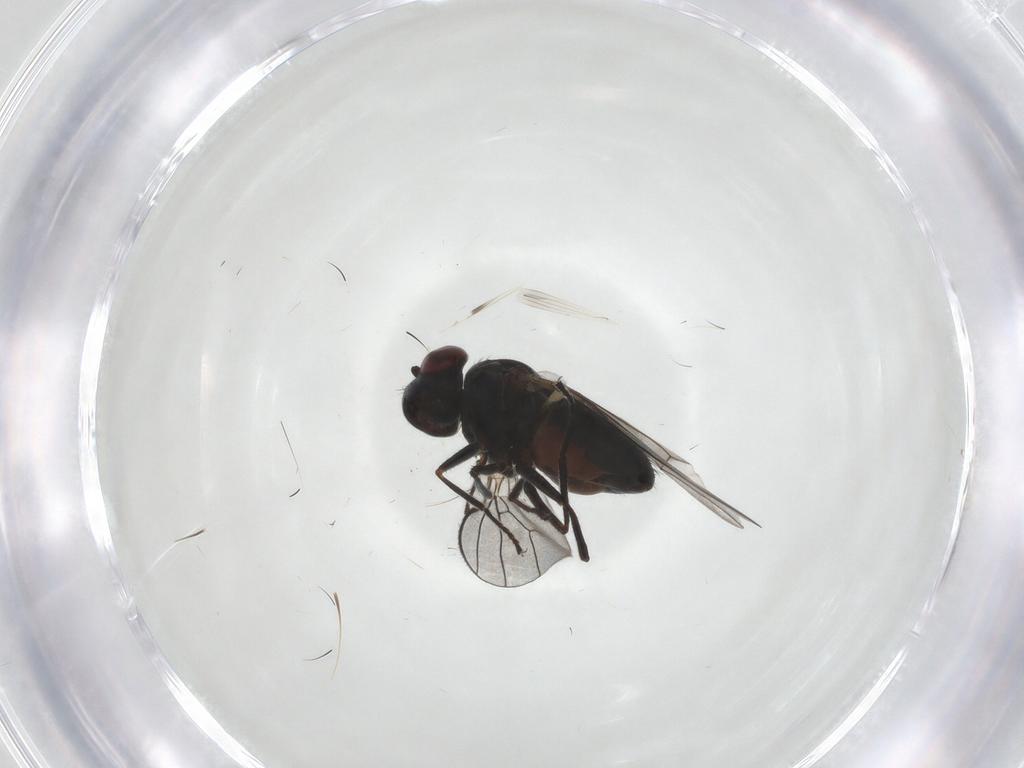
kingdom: Animalia
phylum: Arthropoda
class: Insecta
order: Diptera
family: Ephydridae
